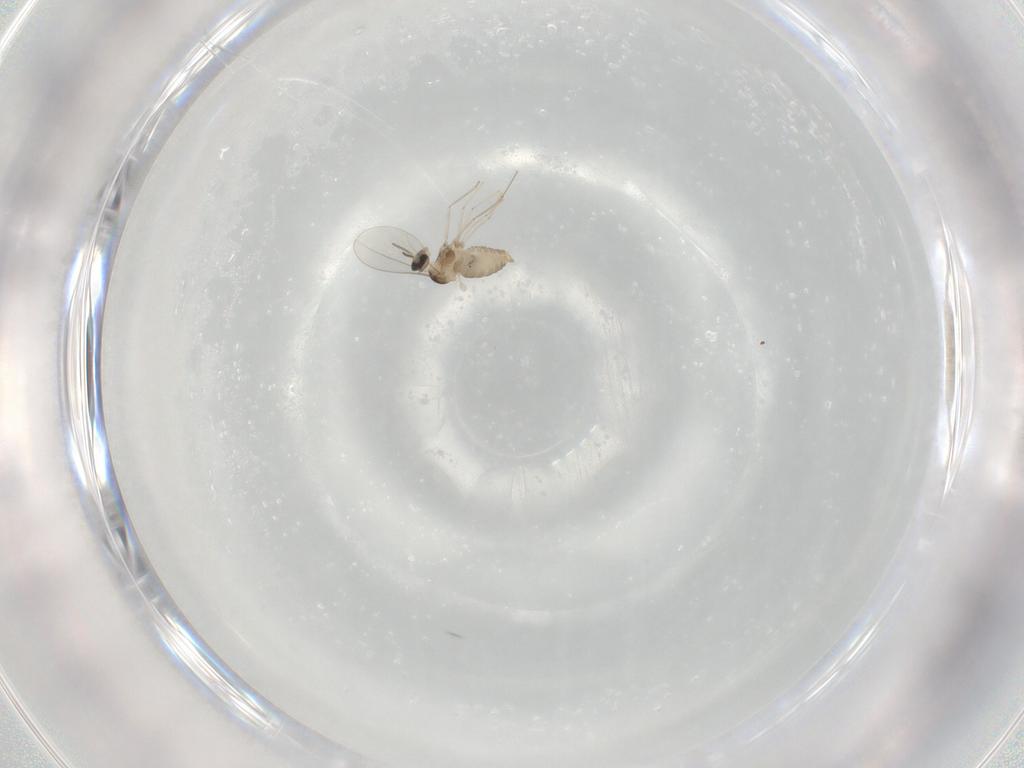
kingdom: Animalia
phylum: Arthropoda
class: Insecta
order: Diptera
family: Cecidomyiidae
